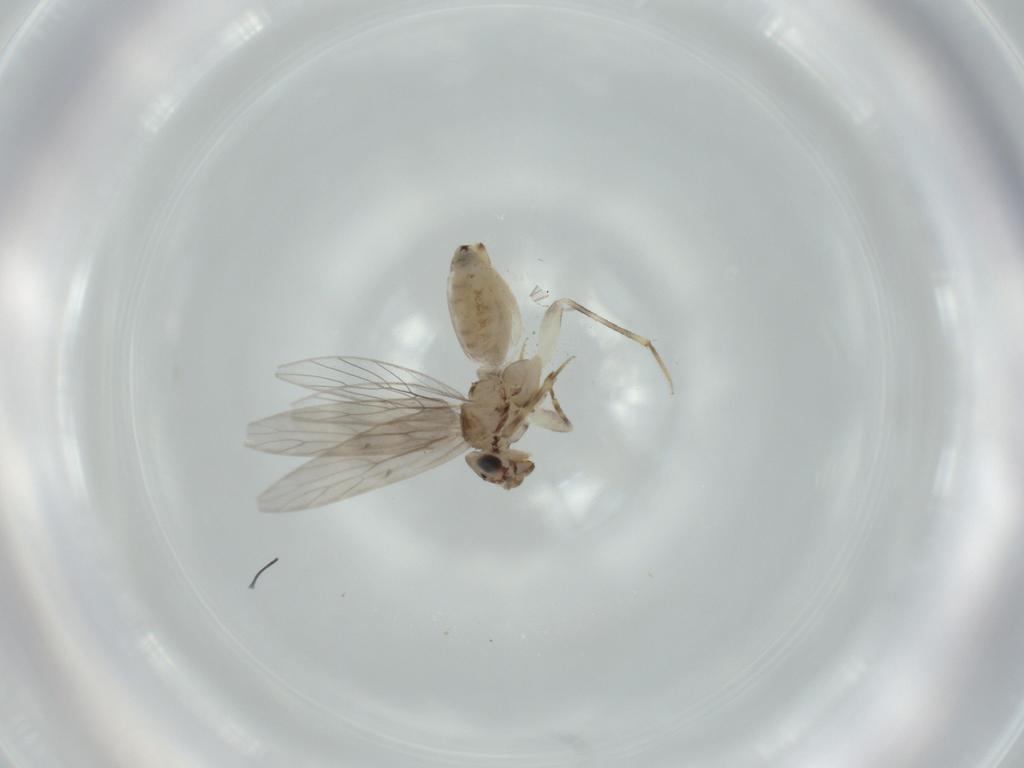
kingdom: Animalia
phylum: Arthropoda
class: Insecta
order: Psocodea
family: Lepidopsocidae
